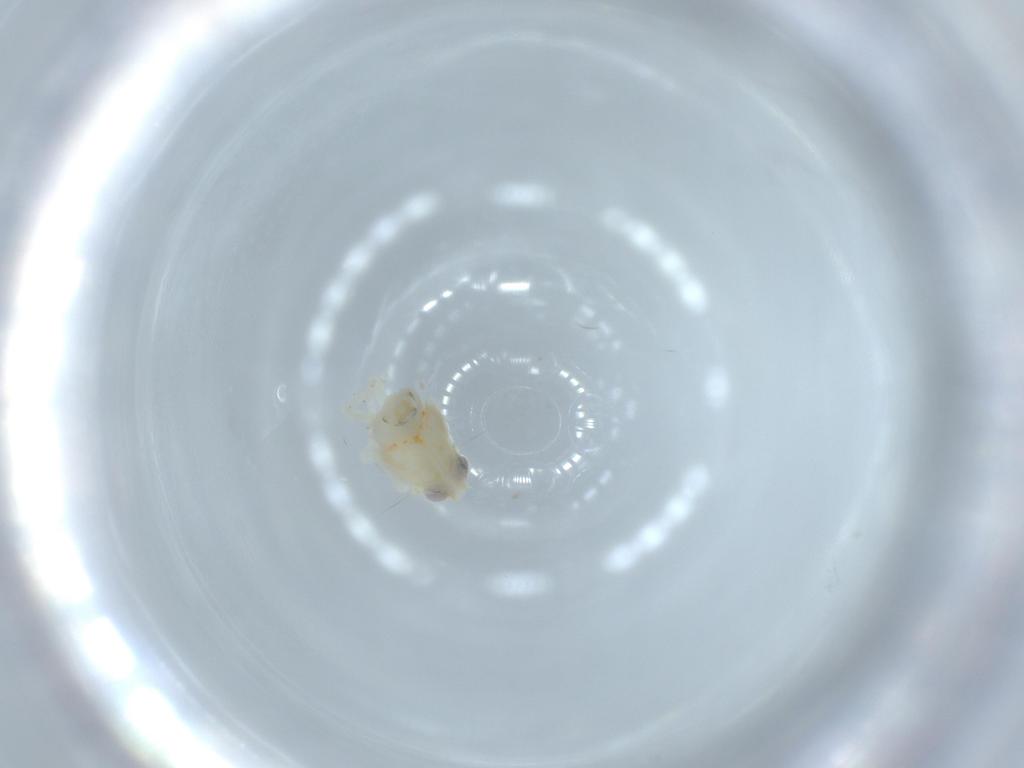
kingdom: Animalia
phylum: Arthropoda
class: Insecta
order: Hemiptera
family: Nogodinidae
